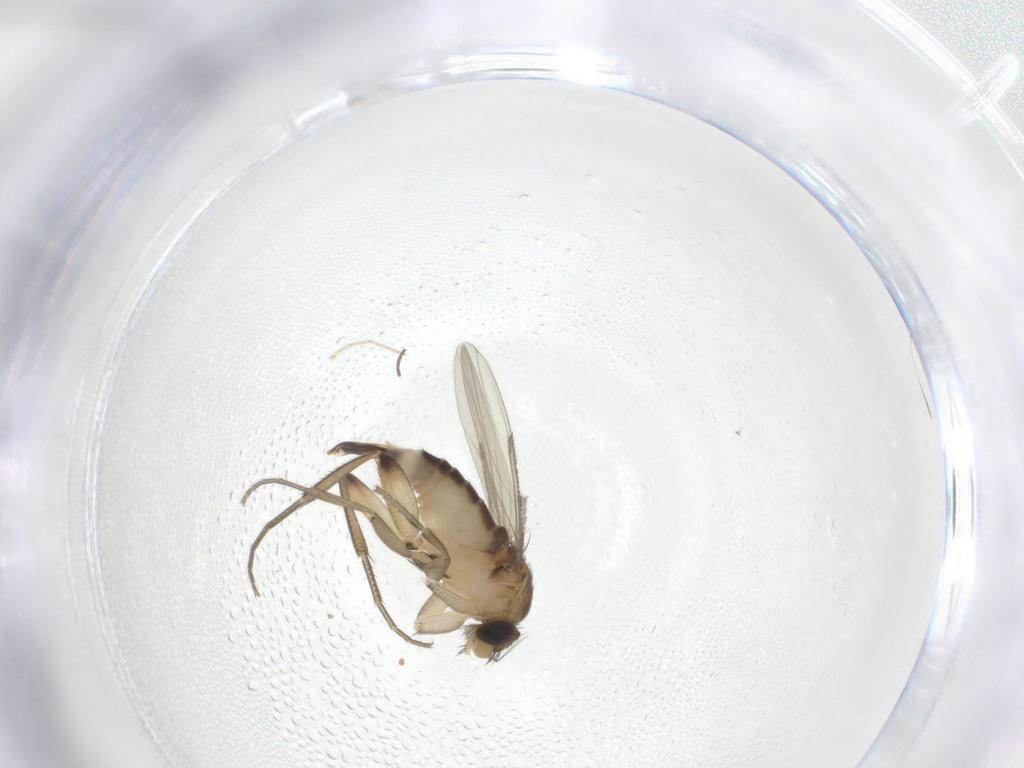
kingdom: Animalia
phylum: Arthropoda
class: Insecta
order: Diptera
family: Phoridae
